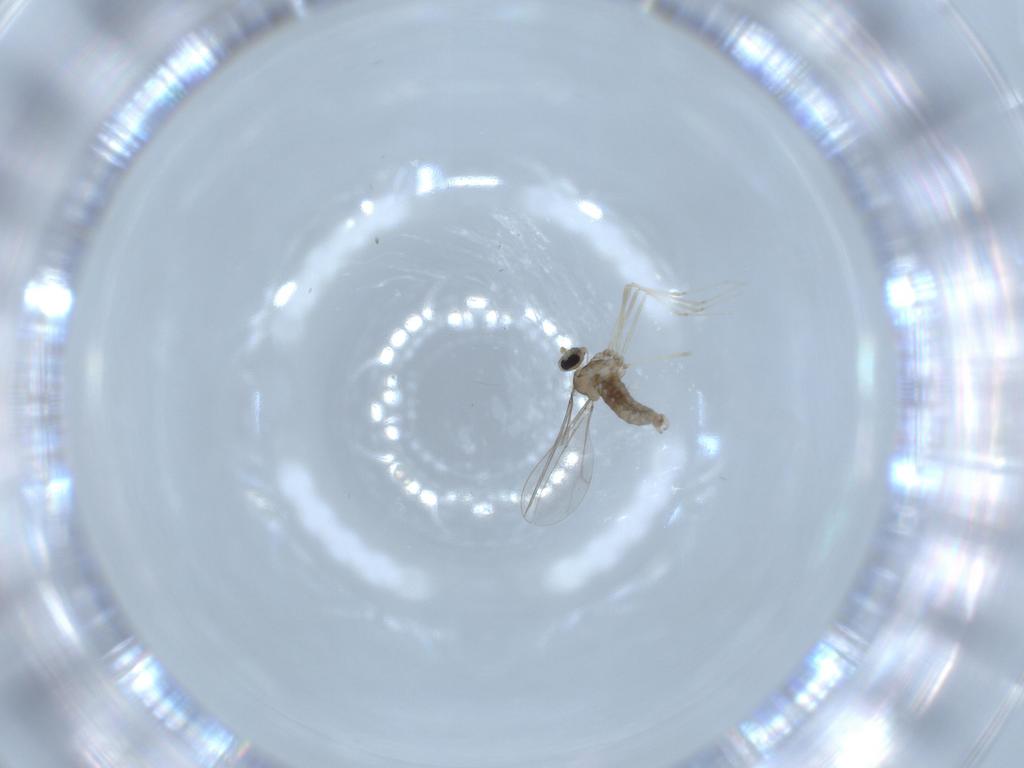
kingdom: Animalia
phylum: Arthropoda
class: Insecta
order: Diptera
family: Cecidomyiidae
